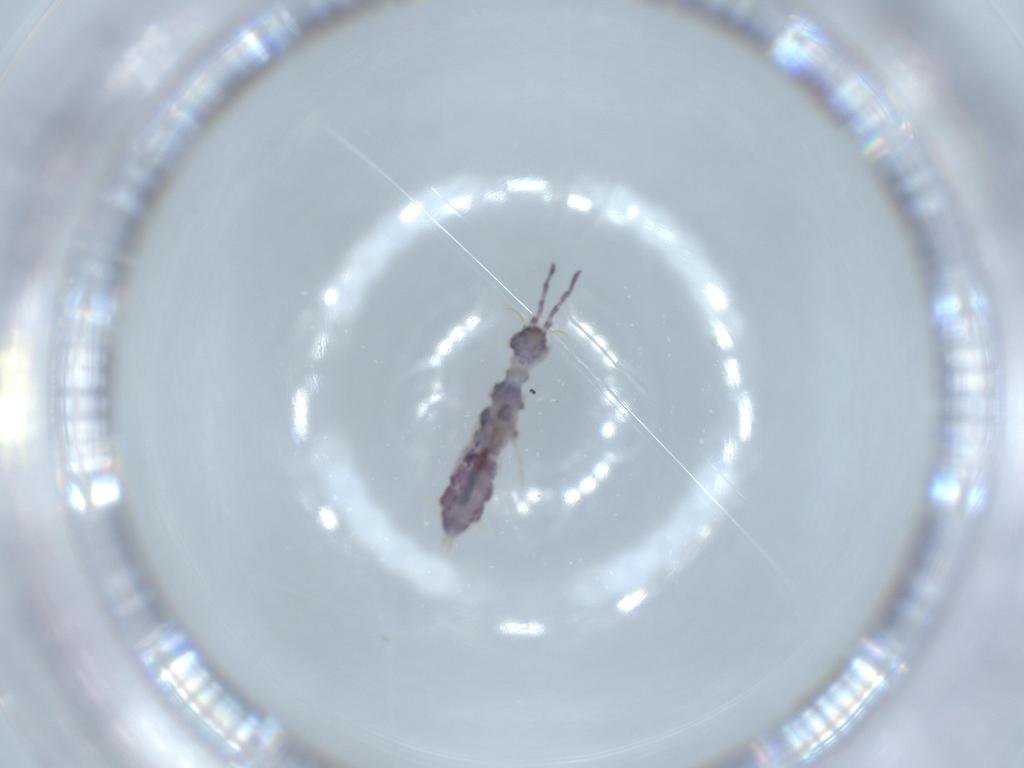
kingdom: Animalia
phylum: Arthropoda
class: Collembola
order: Entomobryomorpha
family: Isotomidae
